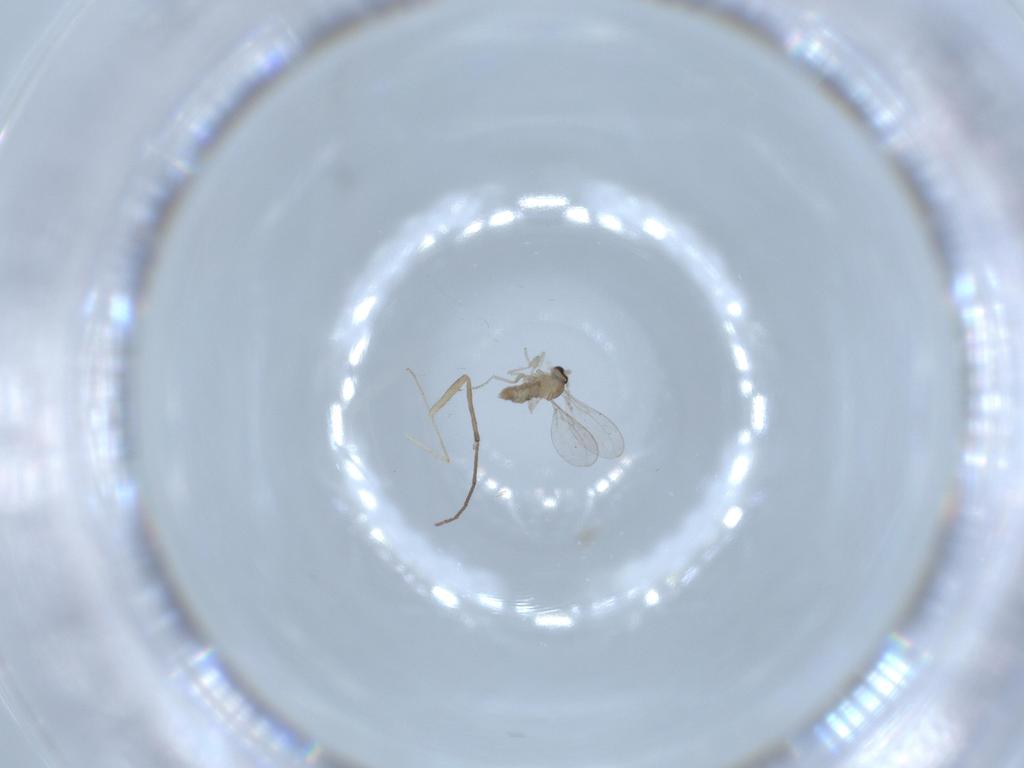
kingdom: Animalia
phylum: Arthropoda
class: Insecta
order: Diptera
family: Cecidomyiidae
